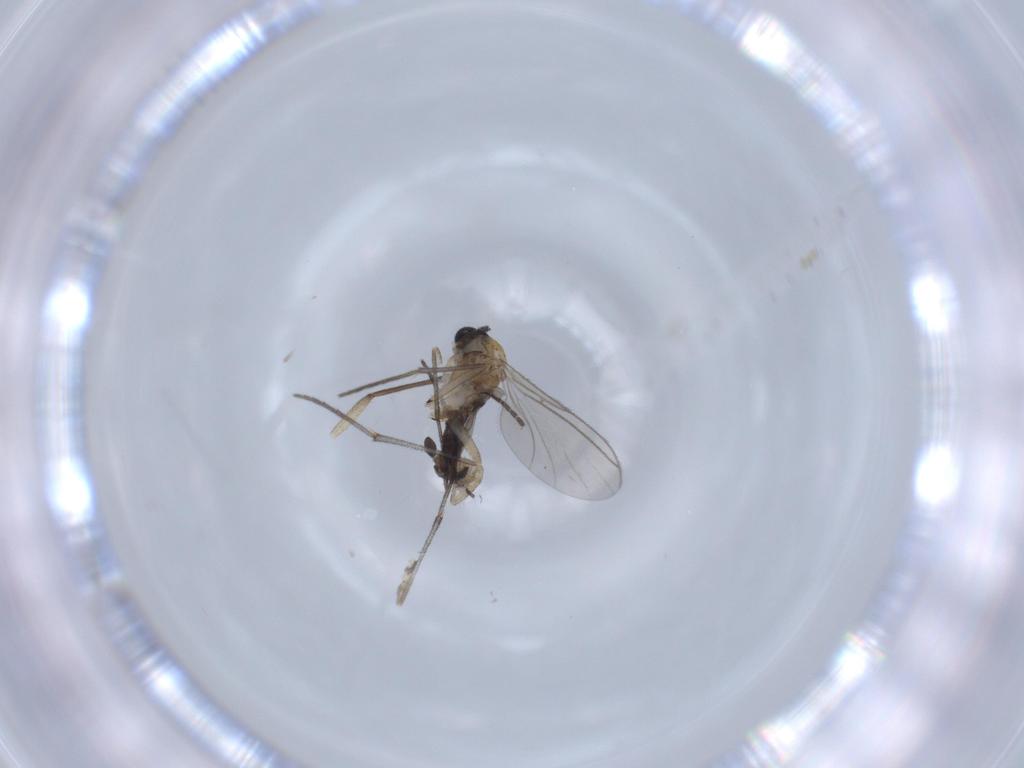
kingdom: Animalia
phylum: Arthropoda
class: Insecta
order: Diptera
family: Sciaridae
